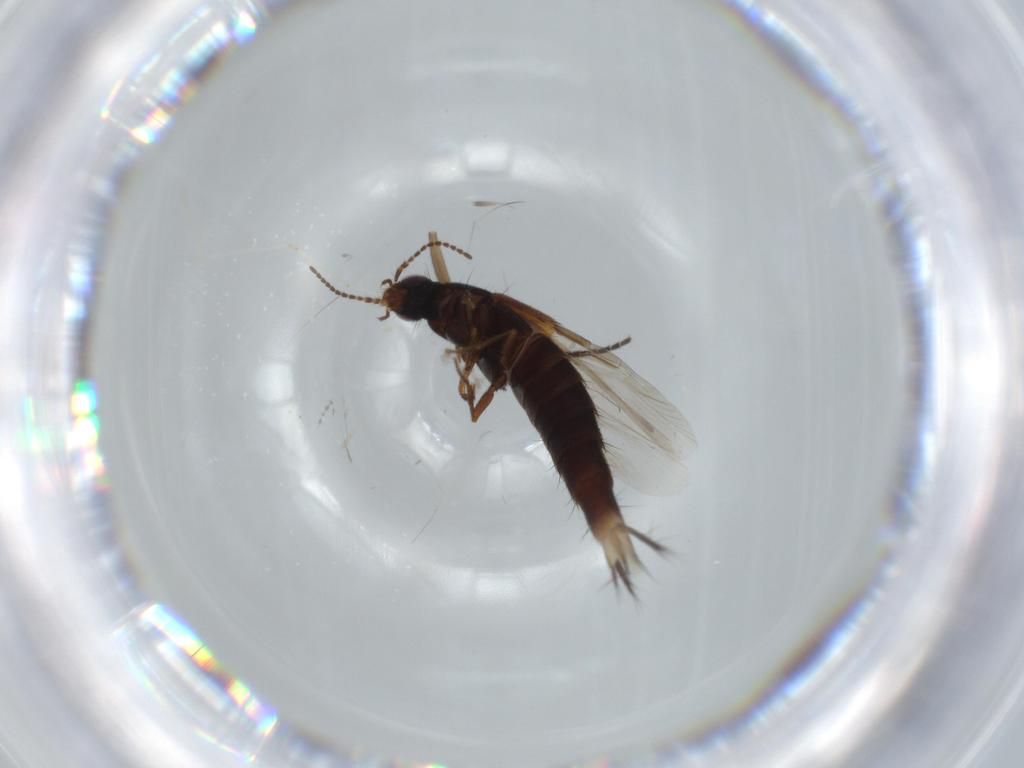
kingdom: Animalia
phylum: Arthropoda
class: Insecta
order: Coleoptera
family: Staphylinidae
